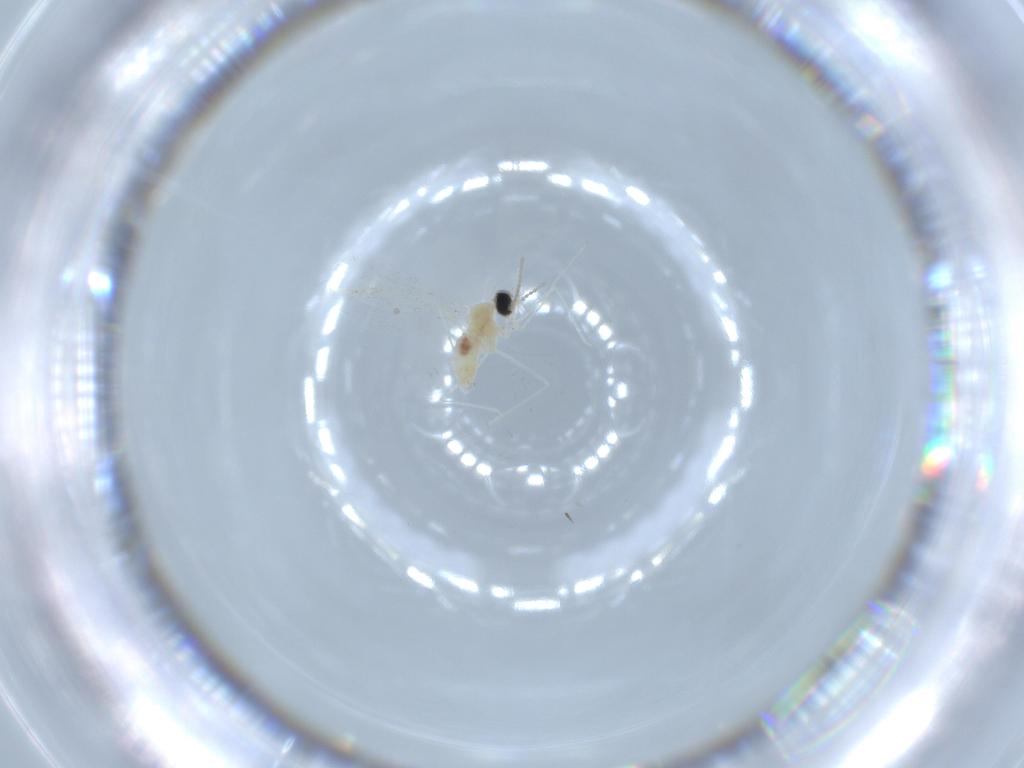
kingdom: Animalia
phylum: Arthropoda
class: Insecta
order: Diptera
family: Cecidomyiidae
